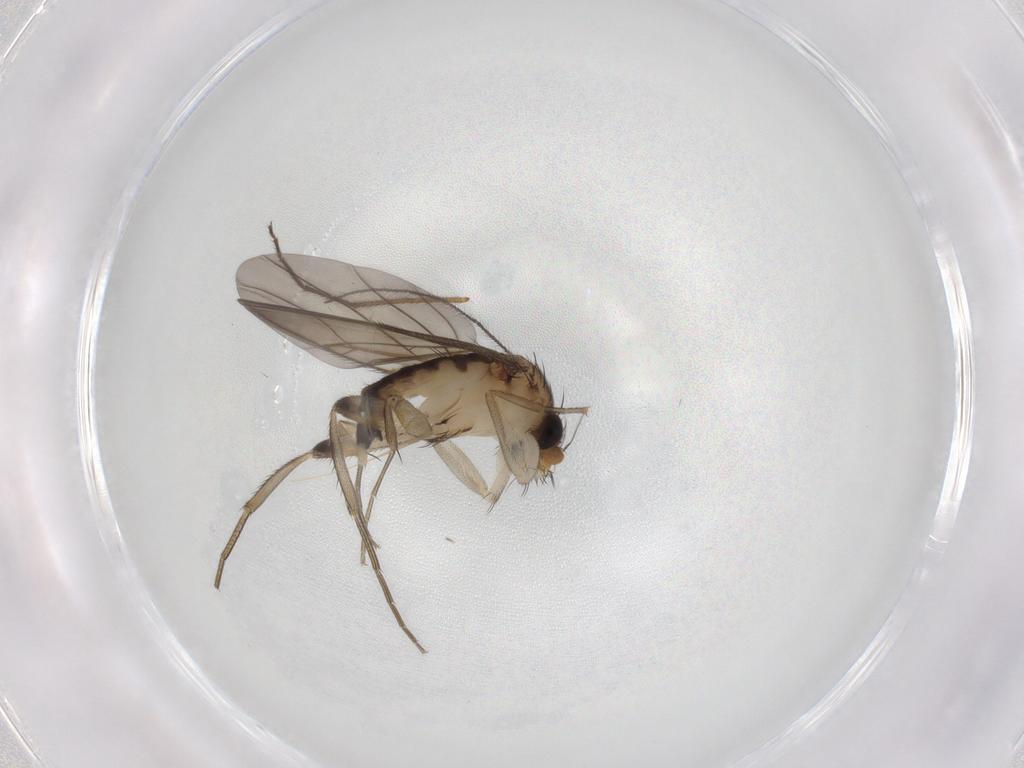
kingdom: Animalia
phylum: Arthropoda
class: Insecta
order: Diptera
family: Phoridae
